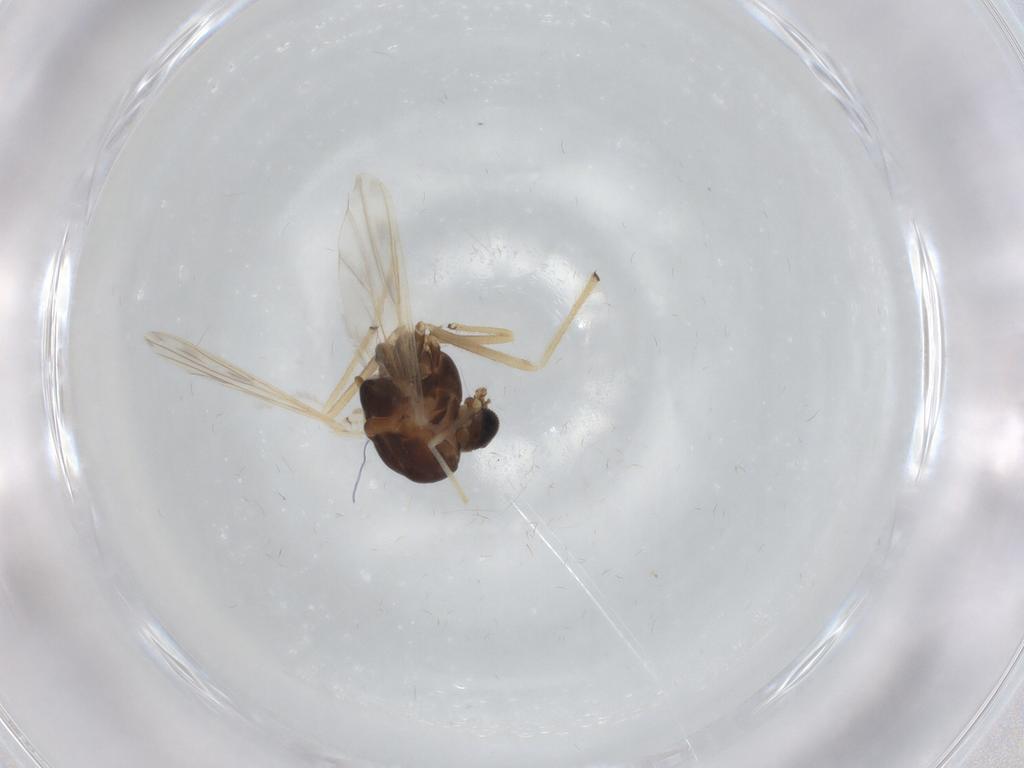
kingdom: Animalia
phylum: Arthropoda
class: Insecta
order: Diptera
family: Chironomidae
